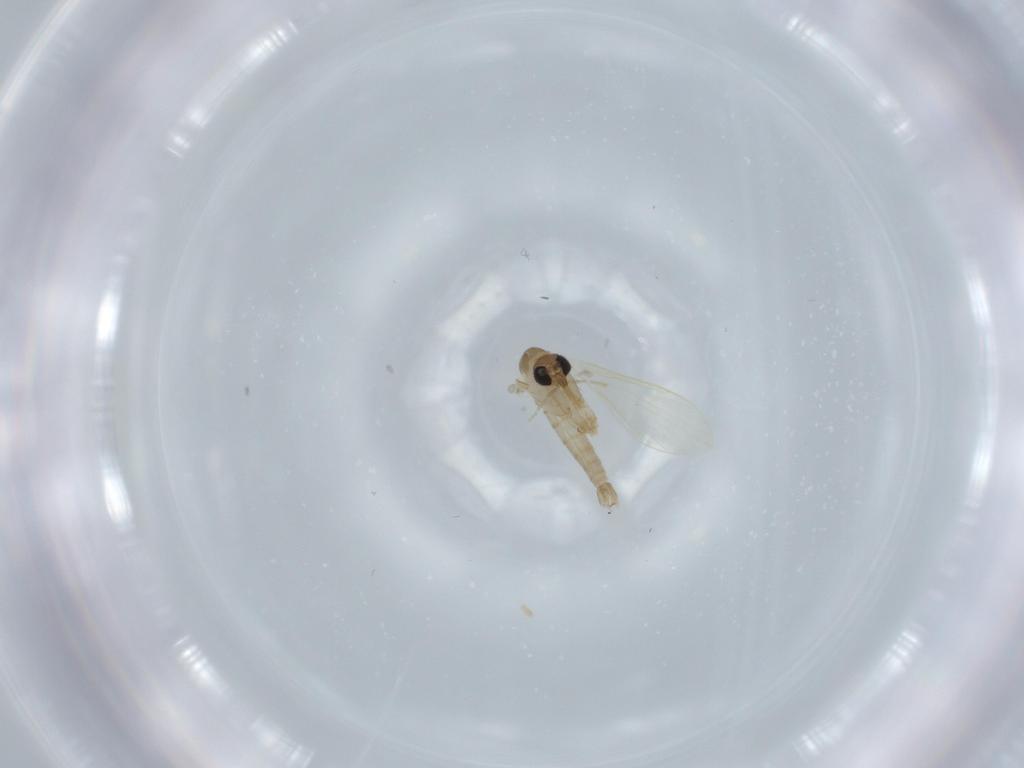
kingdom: Animalia
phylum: Arthropoda
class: Insecta
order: Diptera
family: Psychodidae
